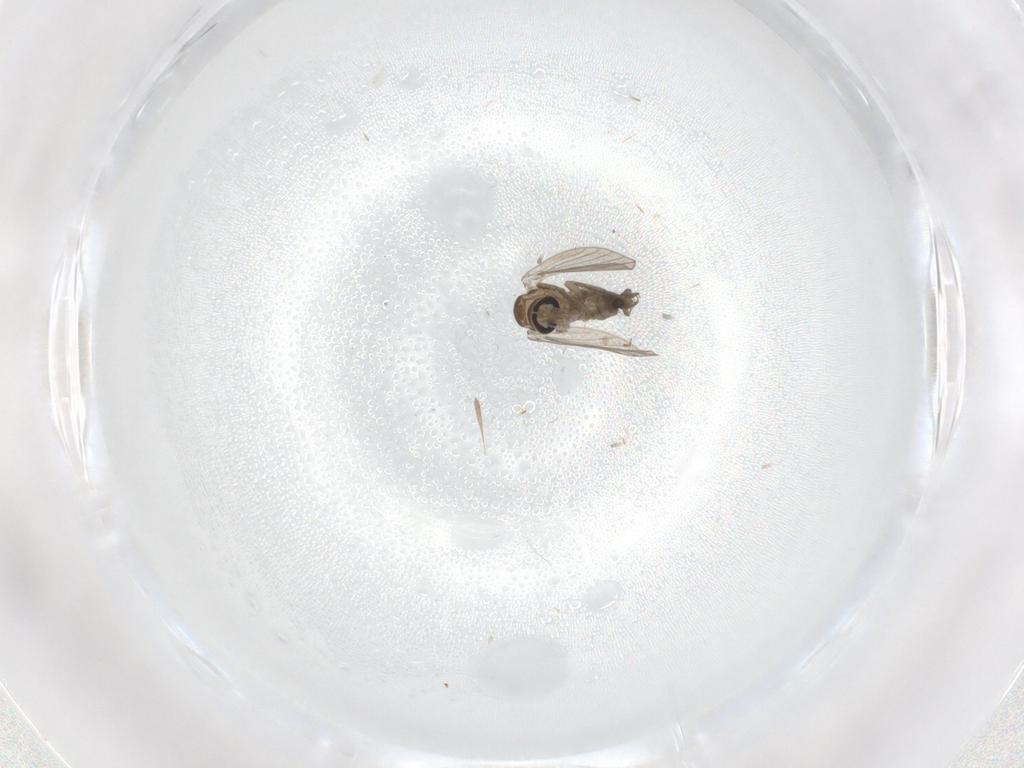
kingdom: Animalia
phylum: Arthropoda
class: Insecta
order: Diptera
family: Psychodidae
